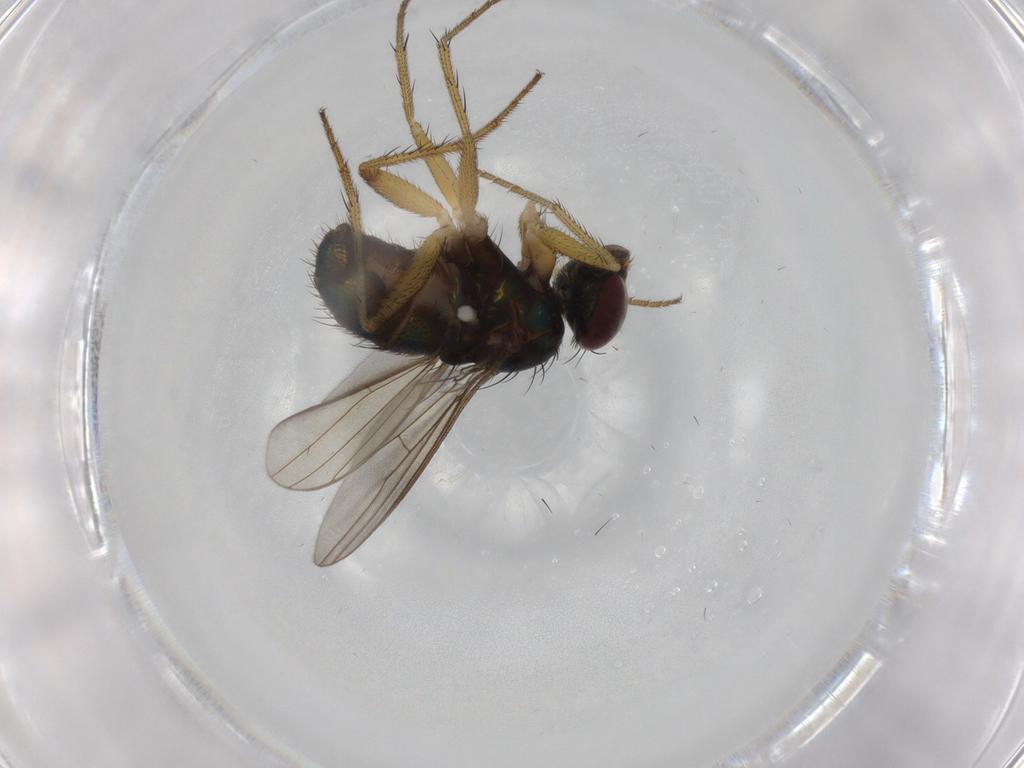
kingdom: Animalia
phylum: Arthropoda
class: Insecta
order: Diptera
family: Dolichopodidae
